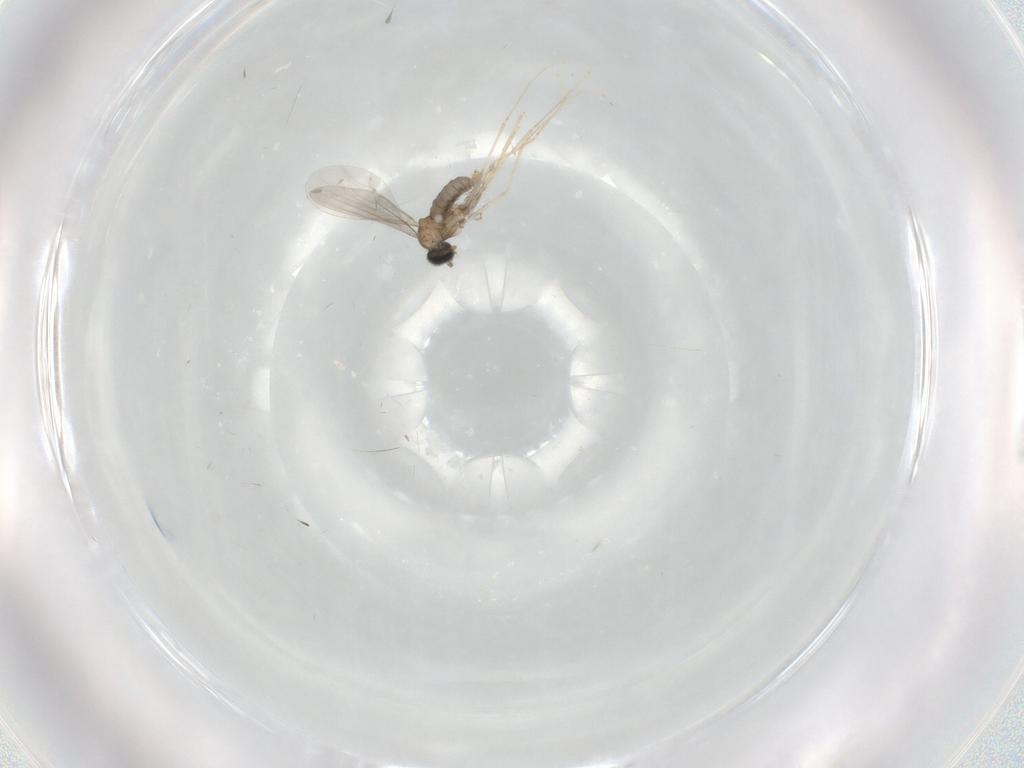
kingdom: Animalia
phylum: Arthropoda
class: Insecta
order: Diptera
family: Cecidomyiidae
